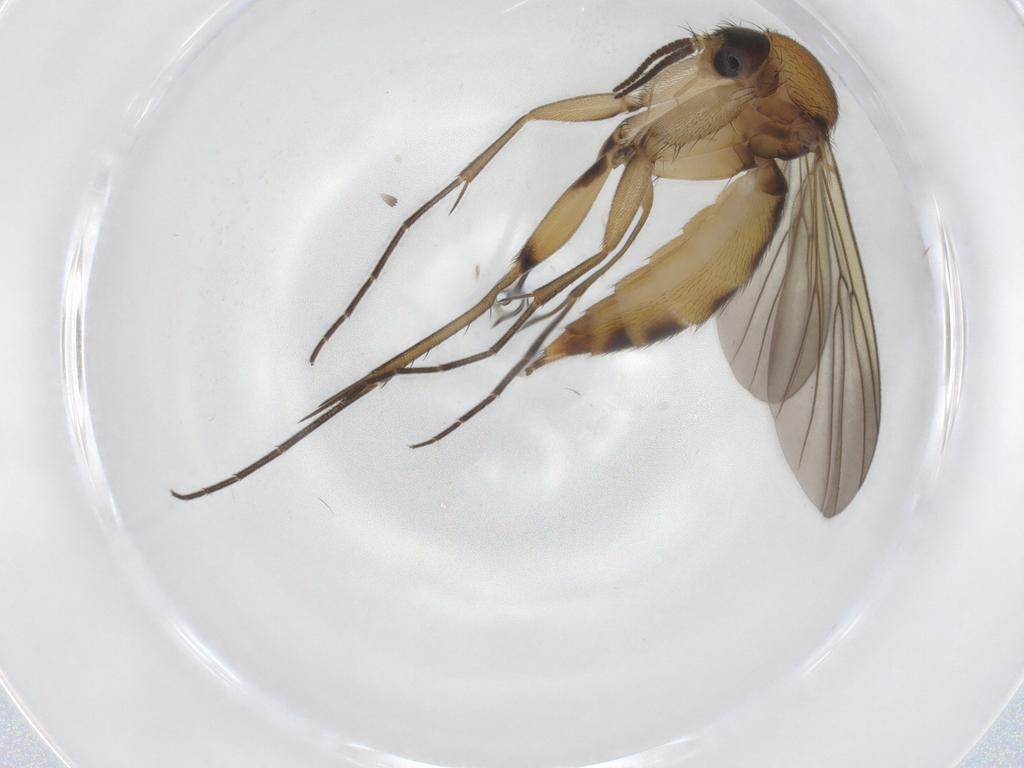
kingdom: Animalia
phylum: Arthropoda
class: Insecta
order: Diptera
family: Mycetophilidae
